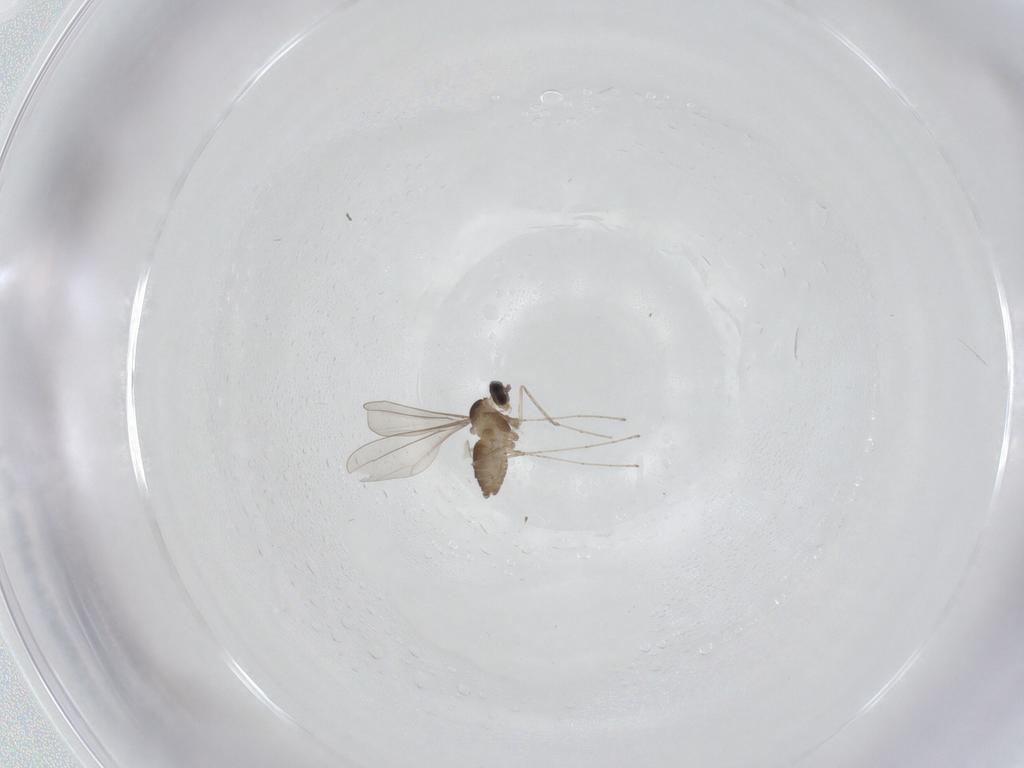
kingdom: Animalia
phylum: Arthropoda
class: Insecta
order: Diptera
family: Cecidomyiidae
